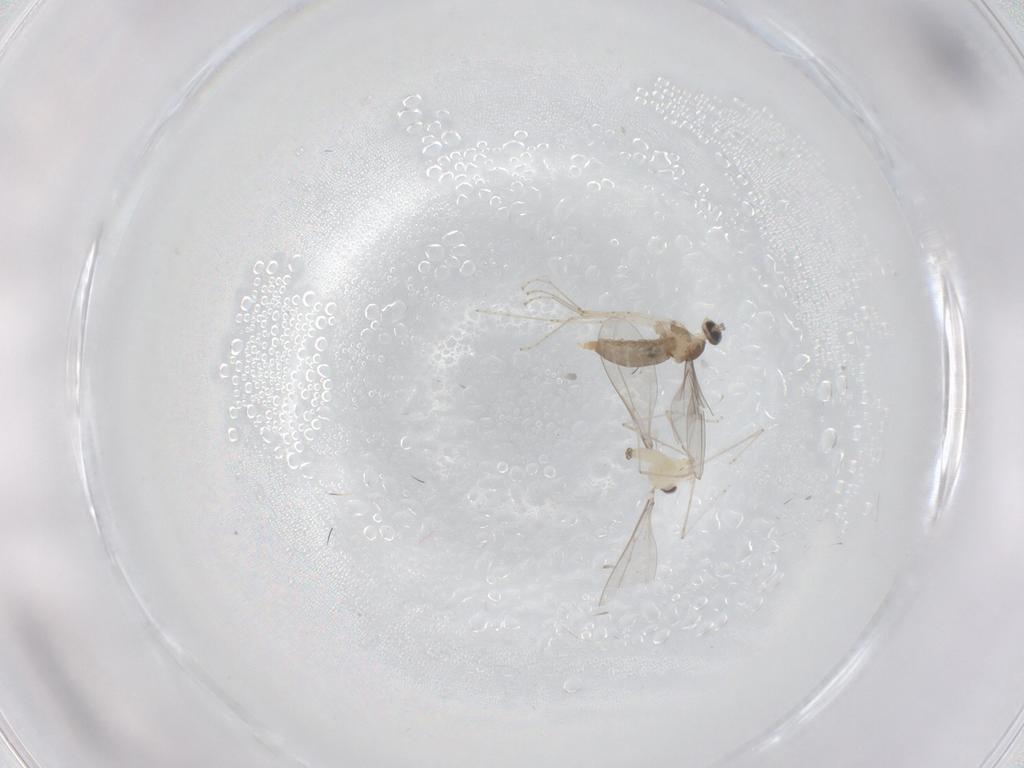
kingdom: Animalia
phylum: Arthropoda
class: Insecta
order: Diptera
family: Cecidomyiidae
